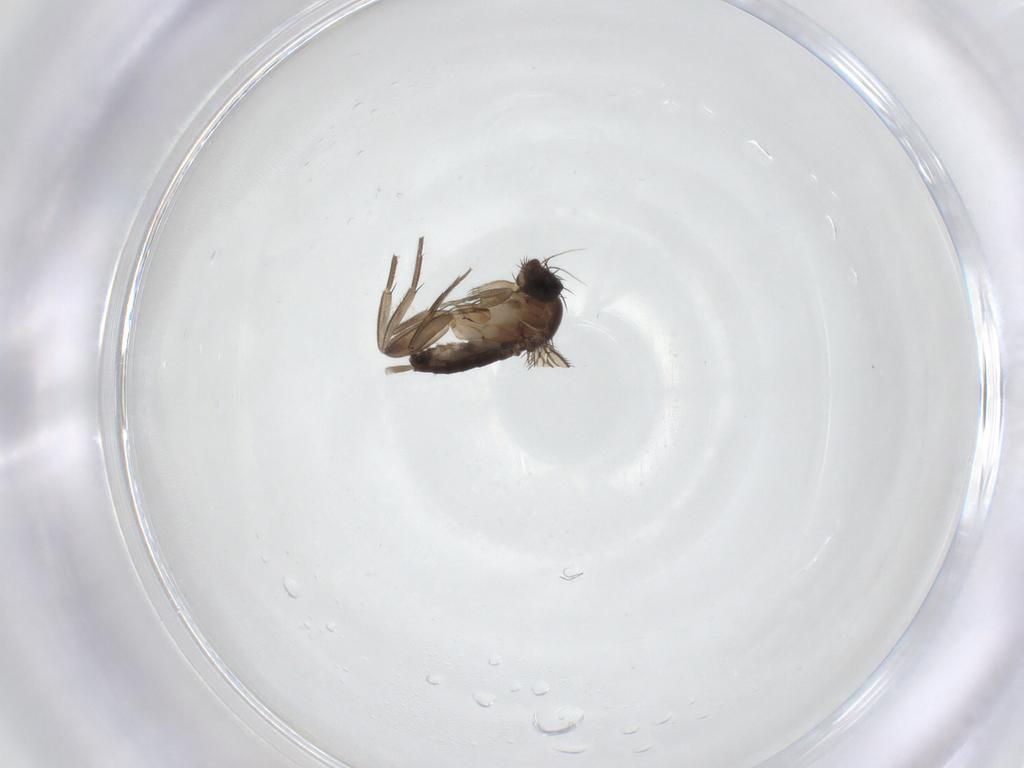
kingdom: Animalia
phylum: Arthropoda
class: Insecta
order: Diptera
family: Phoridae
